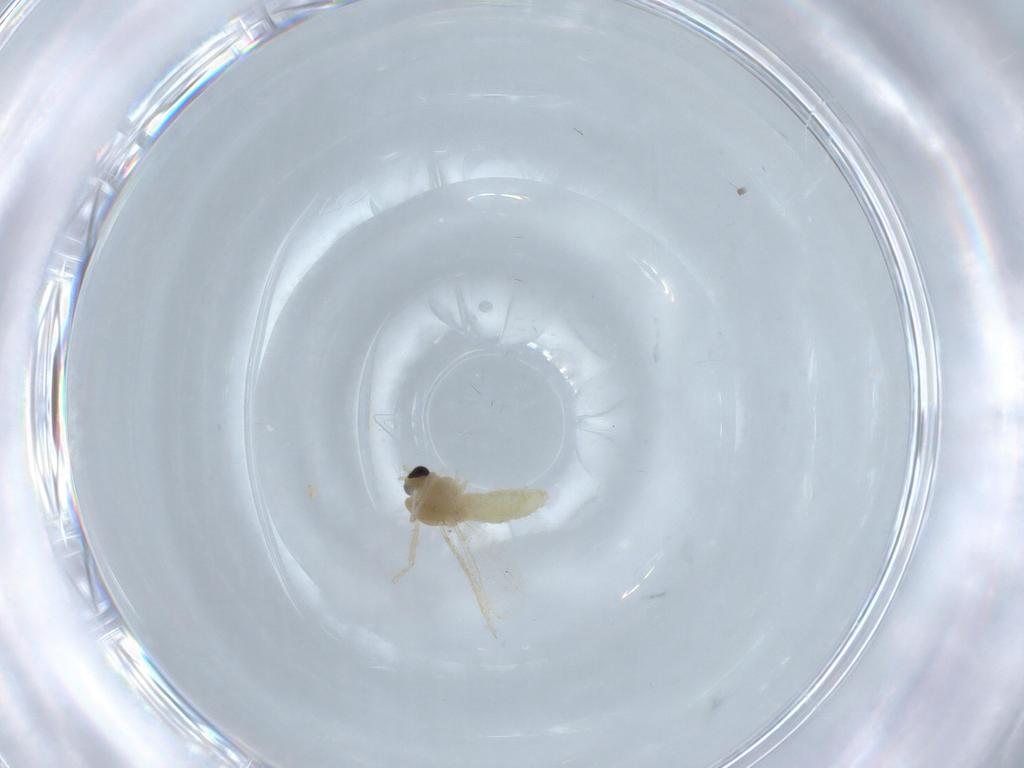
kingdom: Animalia
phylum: Arthropoda
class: Insecta
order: Diptera
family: Chironomidae
